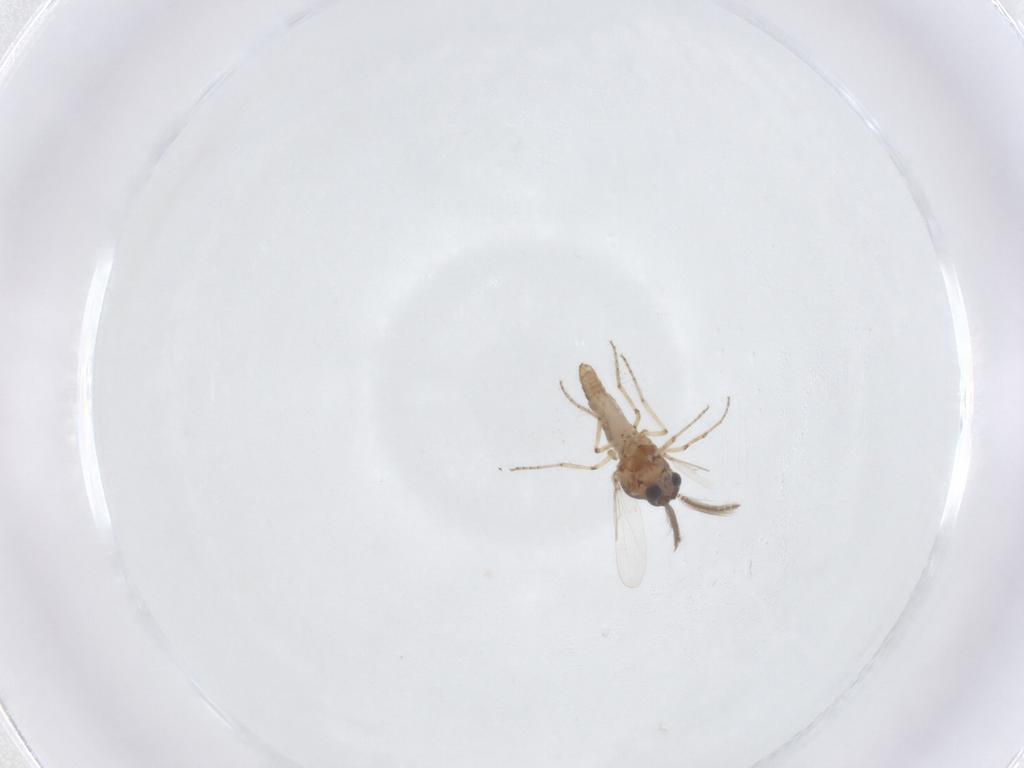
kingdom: Animalia
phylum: Arthropoda
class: Insecta
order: Diptera
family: Ceratopogonidae
